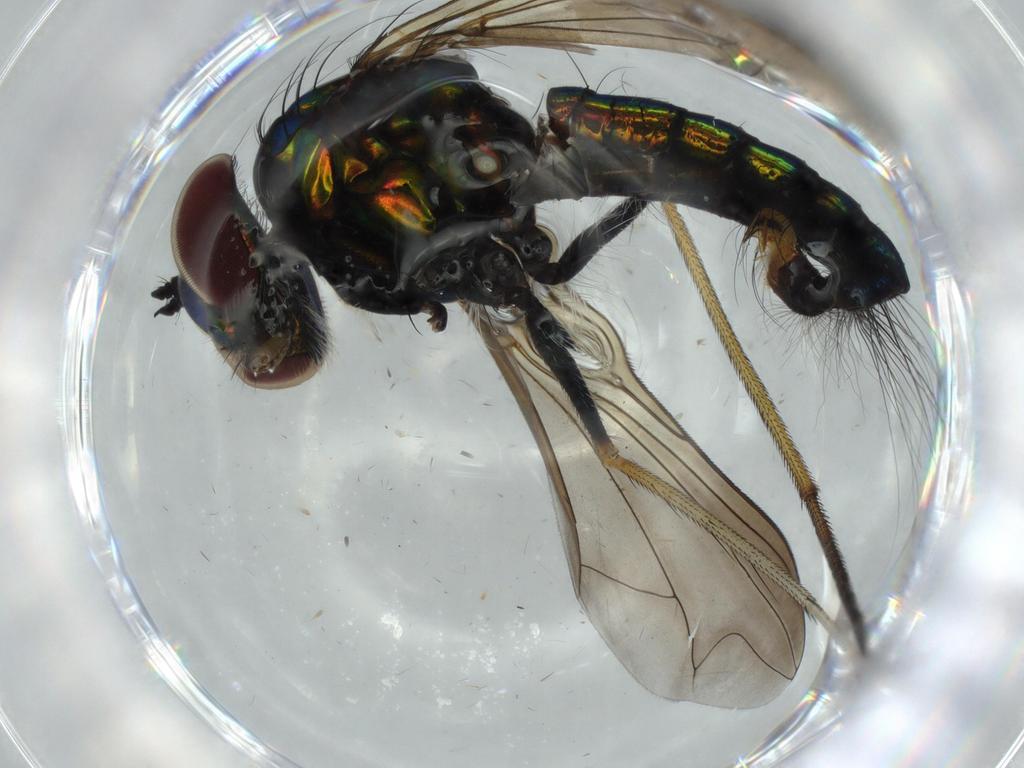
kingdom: Animalia
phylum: Arthropoda
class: Insecta
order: Diptera
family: Dolichopodidae
